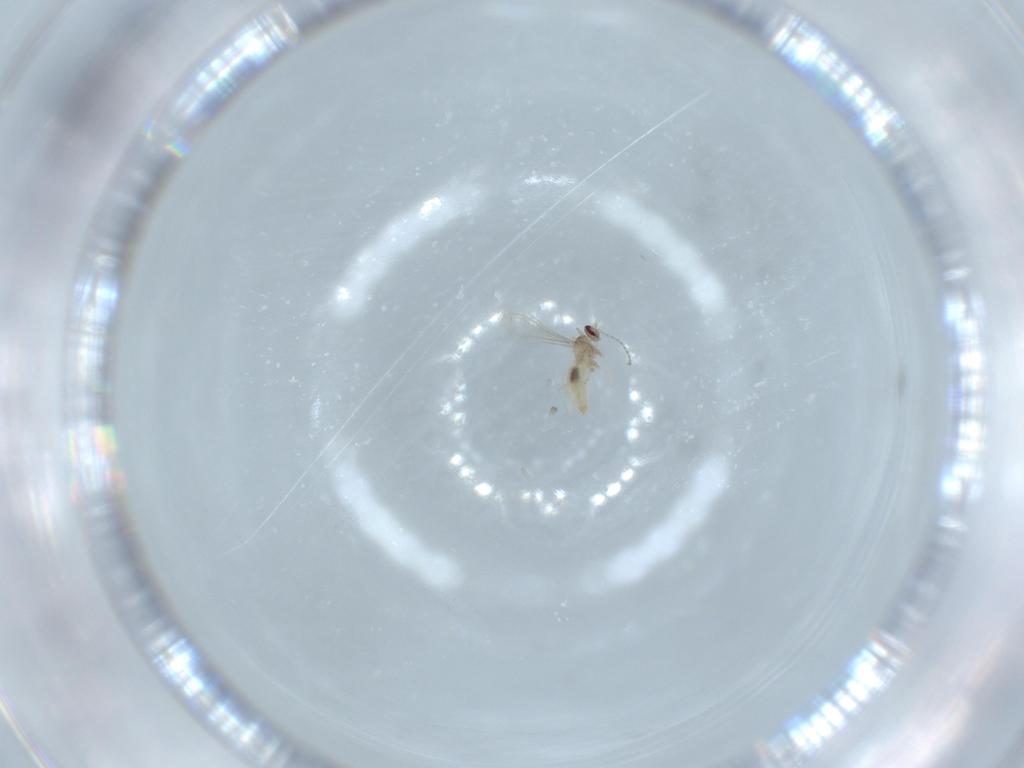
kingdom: Animalia
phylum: Arthropoda
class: Insecta
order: Diptera
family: Cecidomyiidae
